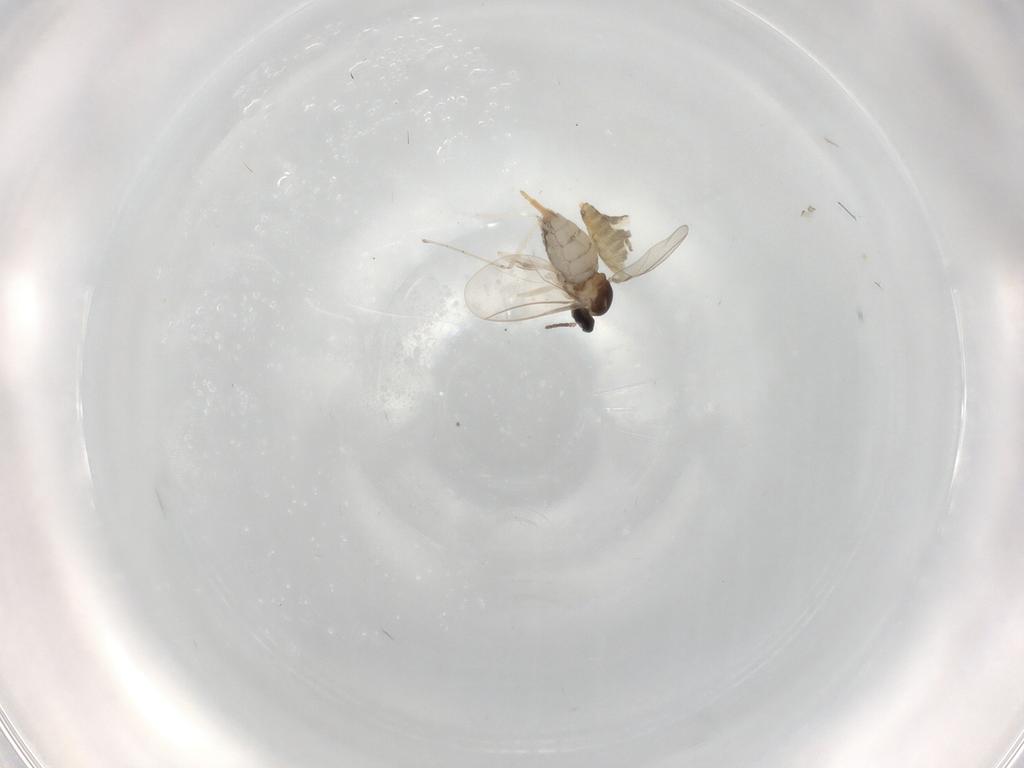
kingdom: Animalia
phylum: Arthropoda
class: Insecta
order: Diptera
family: Cecidomyiidae
